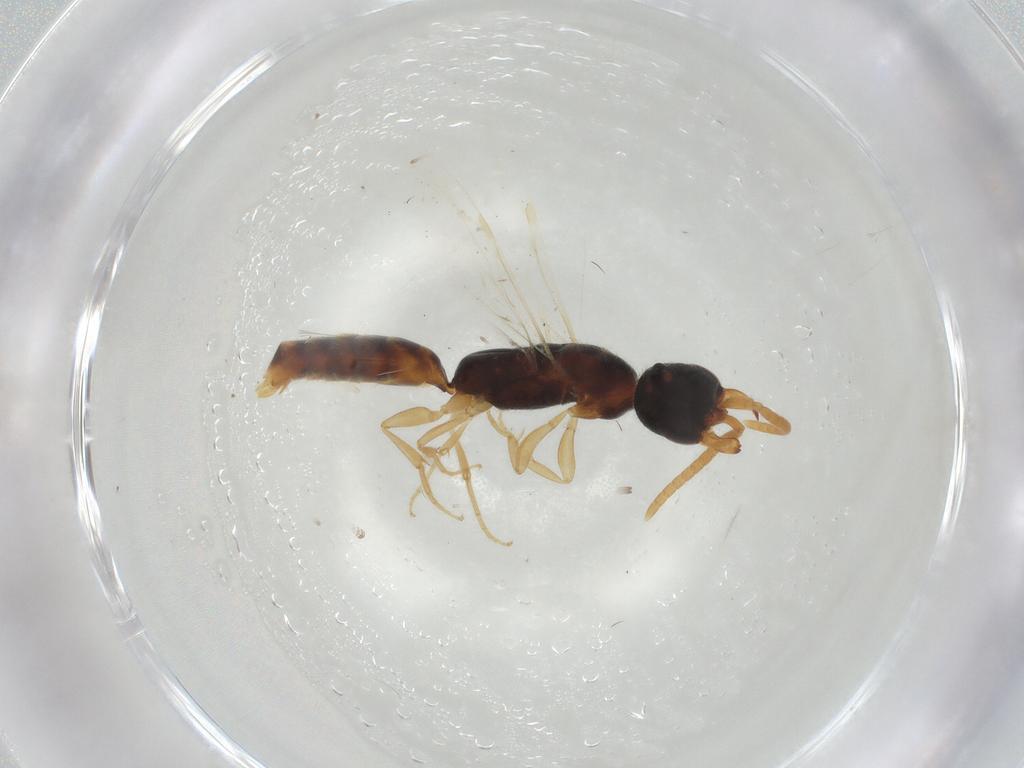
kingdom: Animalia
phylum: Arthropoda
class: Insecta
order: Hymenoptera
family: Bethylidae
